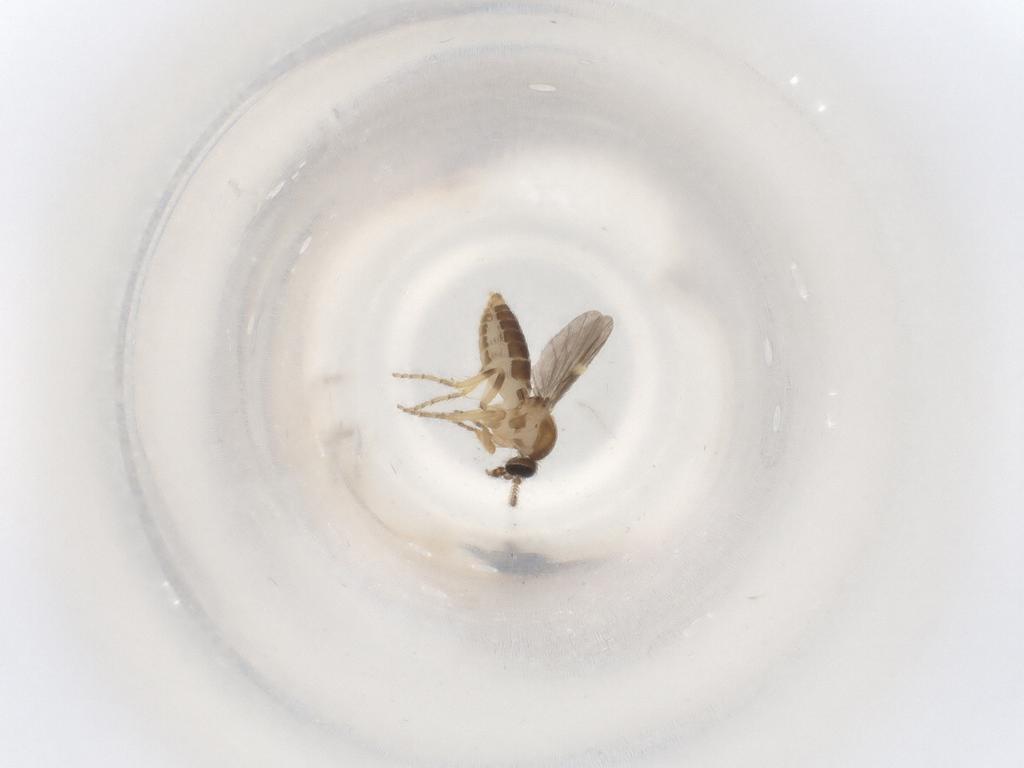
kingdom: Animalia
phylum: Arthropoda
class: Insecta
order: Diptera
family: Ceratopogonidae
